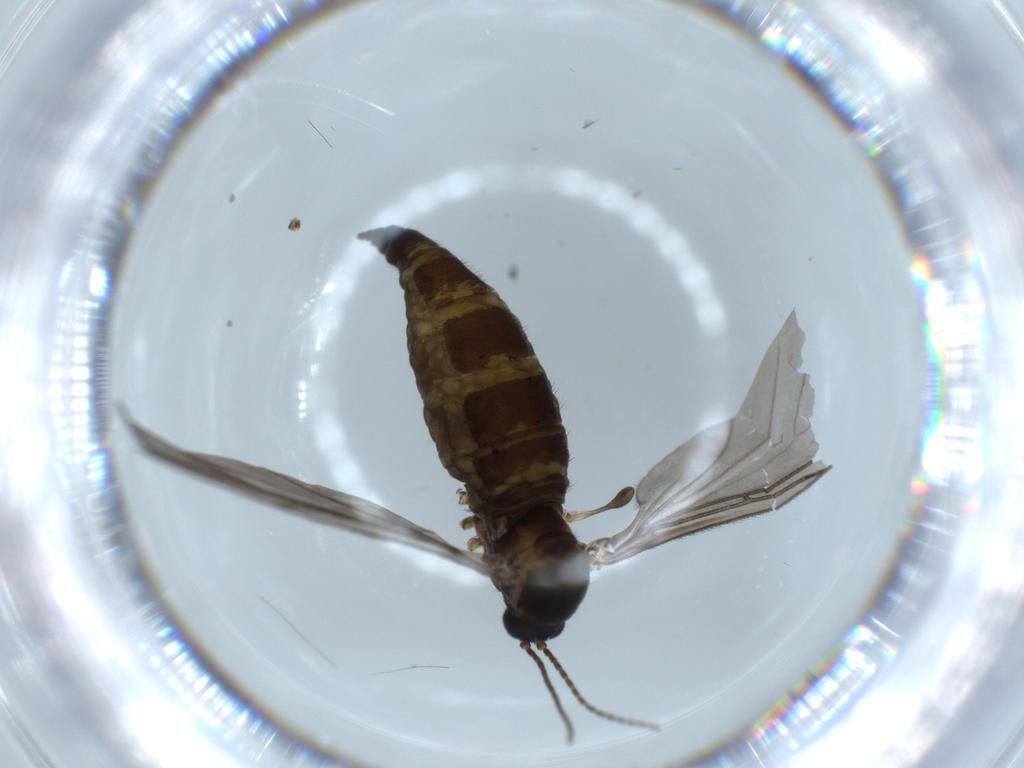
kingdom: Animalia
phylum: Arthropoda
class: Insecta
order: Diptera
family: Sciaridae
